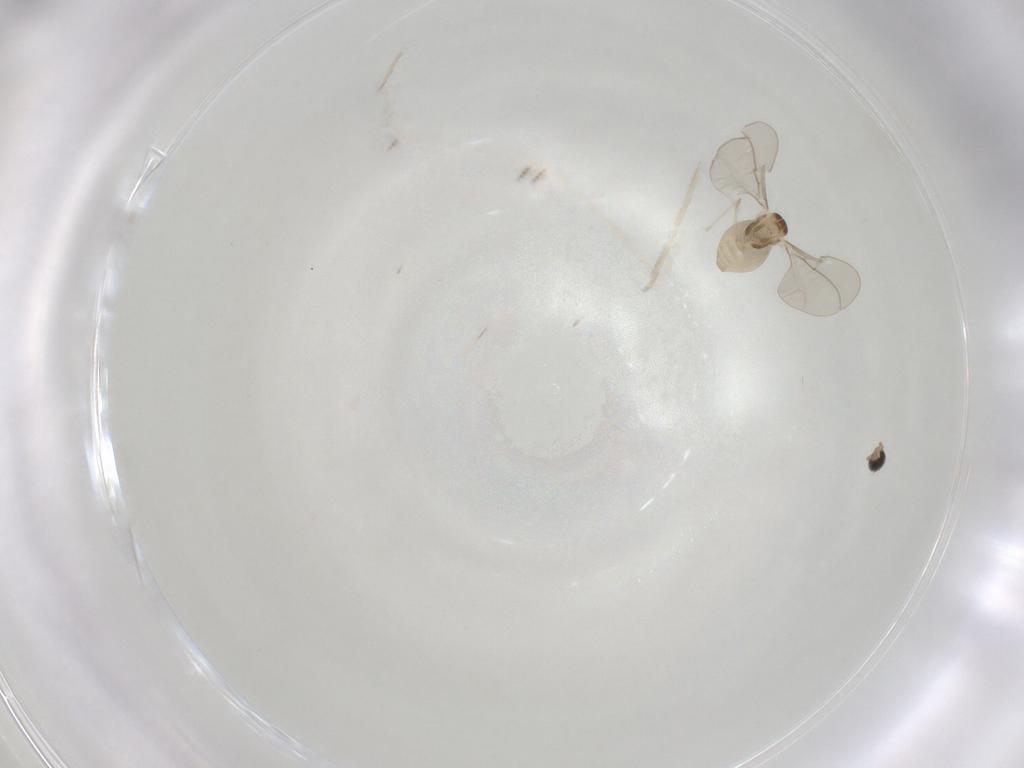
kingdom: Animalia
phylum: Arthropoda
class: Insecta
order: Diptera
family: Cecidomyiidae
